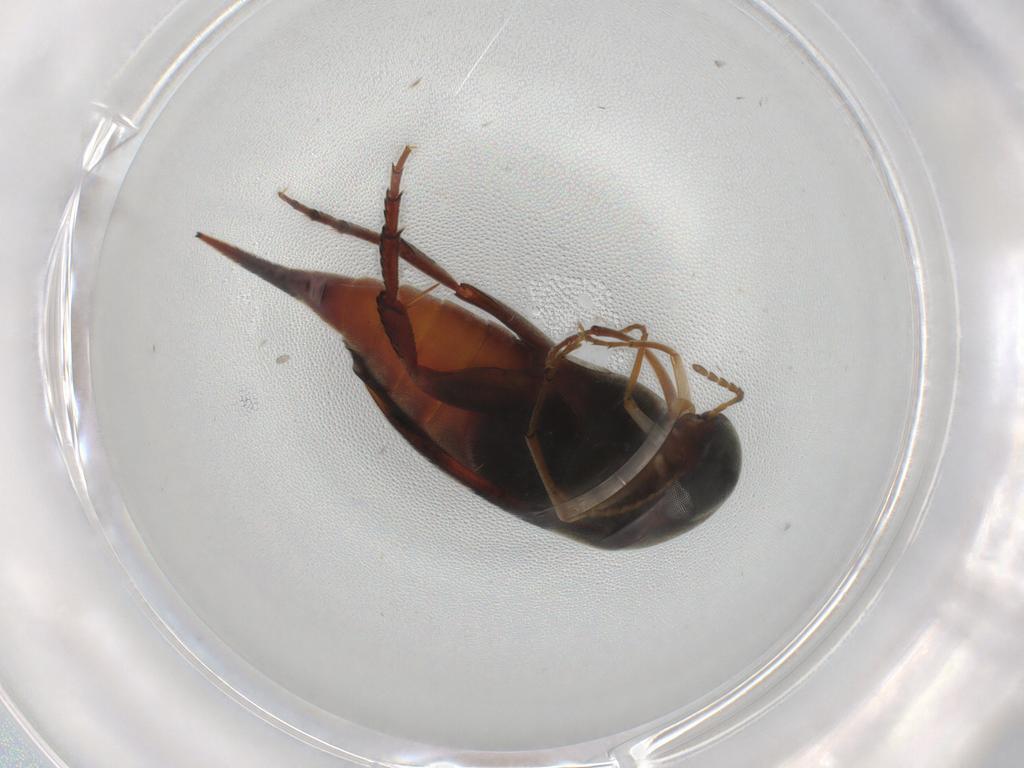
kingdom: Animalia
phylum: Arthropoda
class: Insecta
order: Coleoptera
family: Mordellidae
